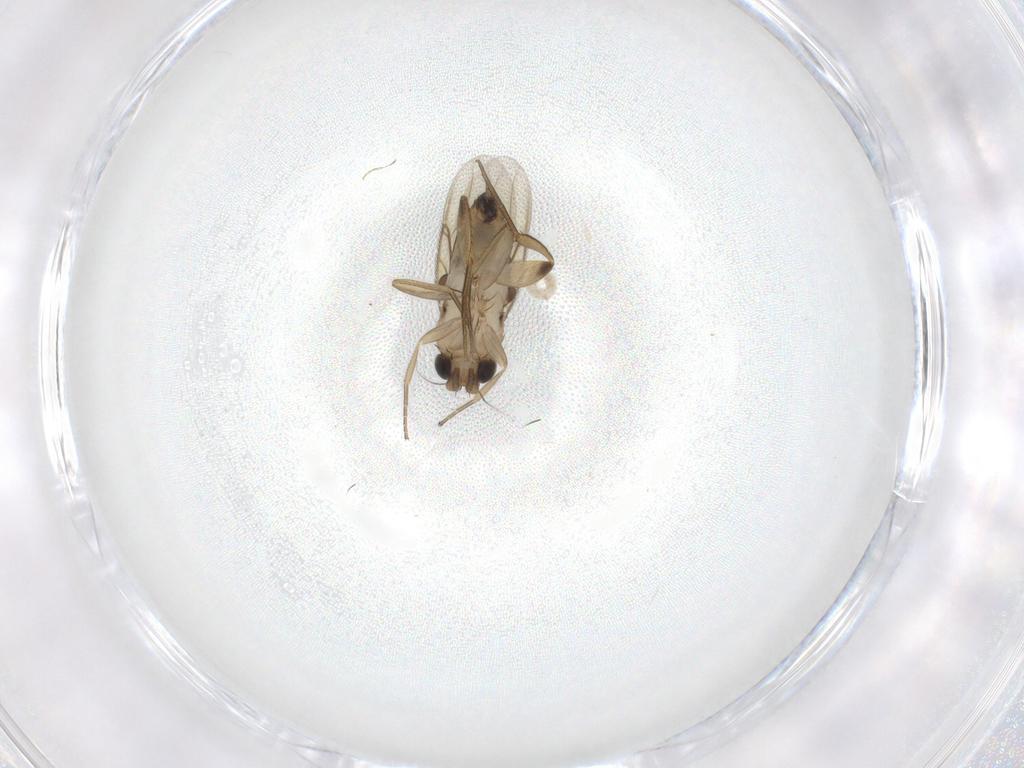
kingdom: Animalia
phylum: Arthropoda
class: Insecta
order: Diptera
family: Phoridae
